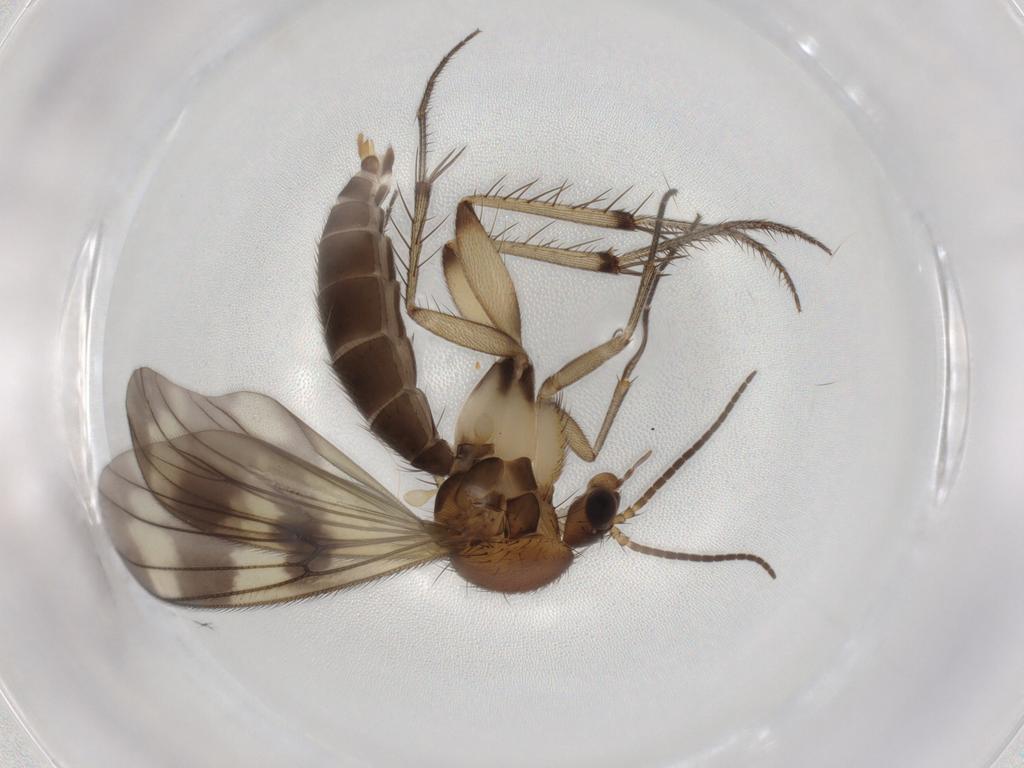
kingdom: Animalia
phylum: Arthropoda
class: Insecta
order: Diptera
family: Mycetophilidae
